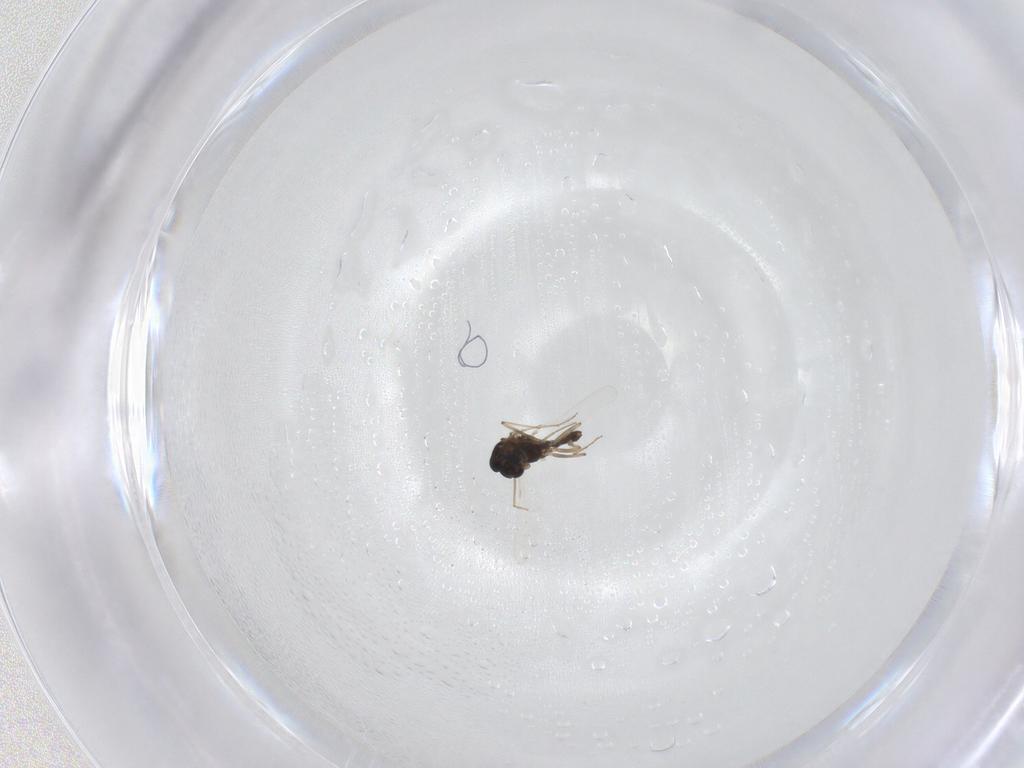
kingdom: Animalia
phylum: Arthropoda
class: Insecta
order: Diptera
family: Chironomidae
